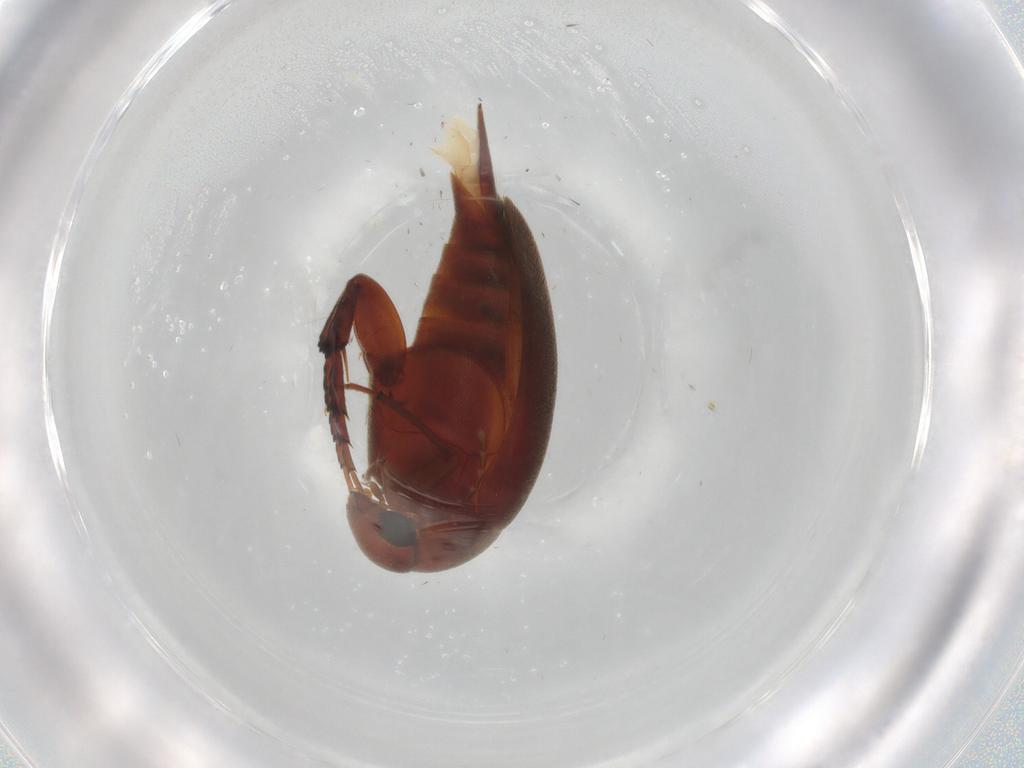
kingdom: Animalia
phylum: Arthropoda
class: Insecta
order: Coleoptera
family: Mordellidae
